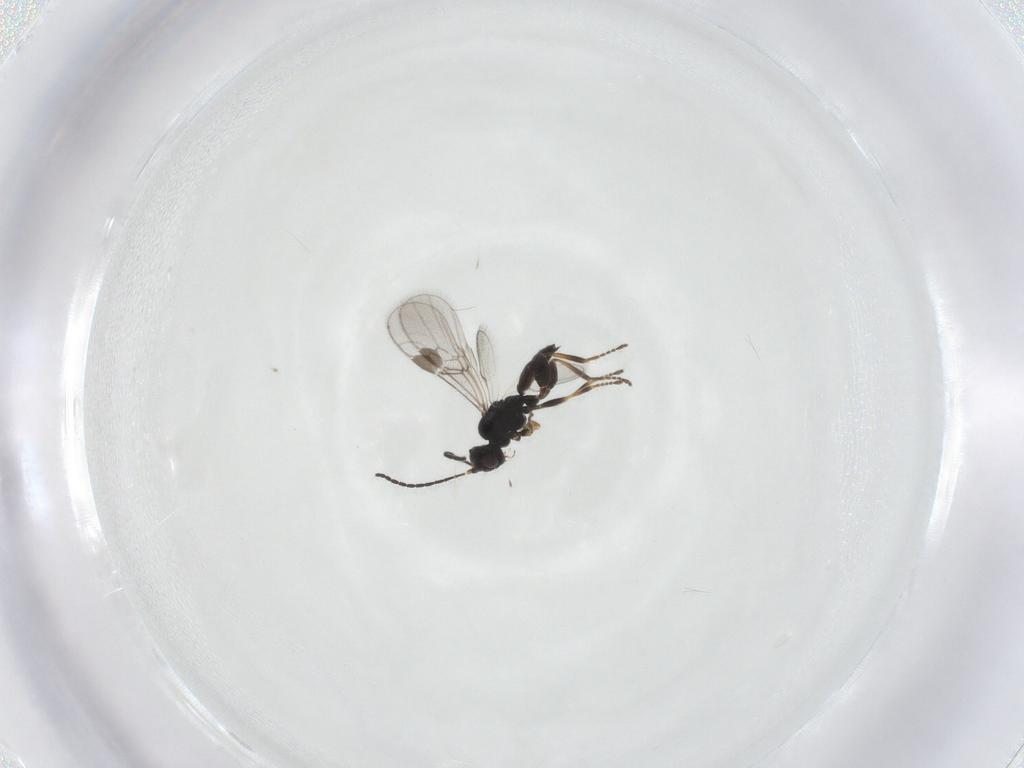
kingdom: Animalia
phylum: Arthropoda
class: Insecta
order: Hymenoptera
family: Braconidae
